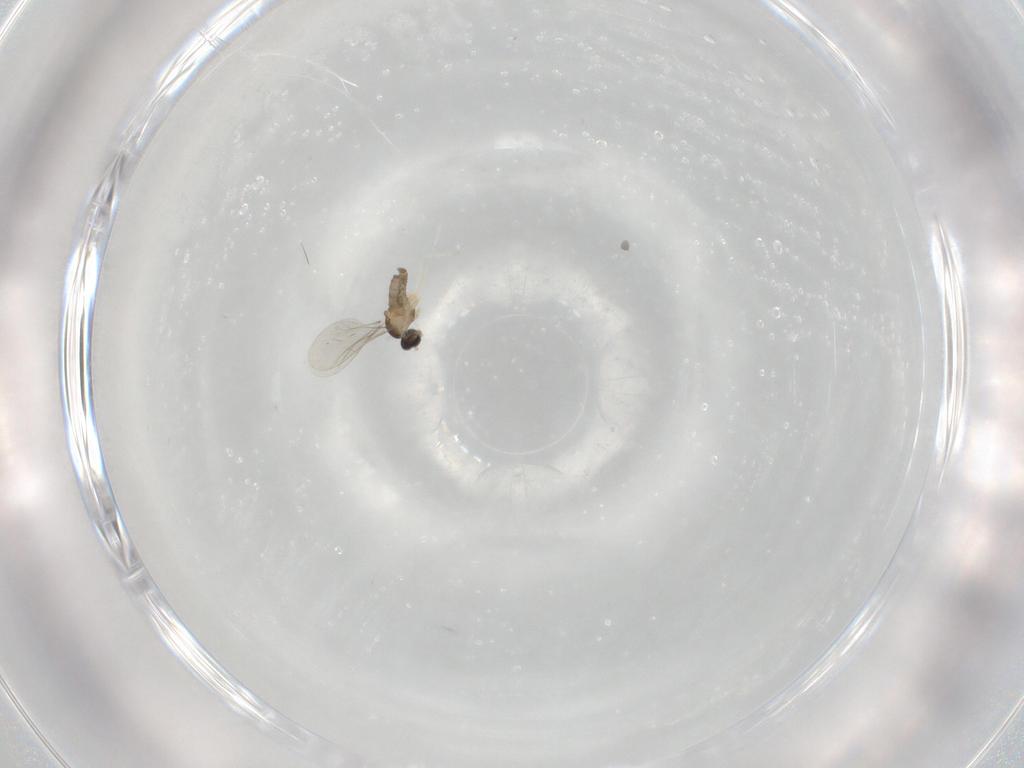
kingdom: Animalia
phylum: Arthropoda
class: Insecta
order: Diptera
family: Cecidomyiidae
